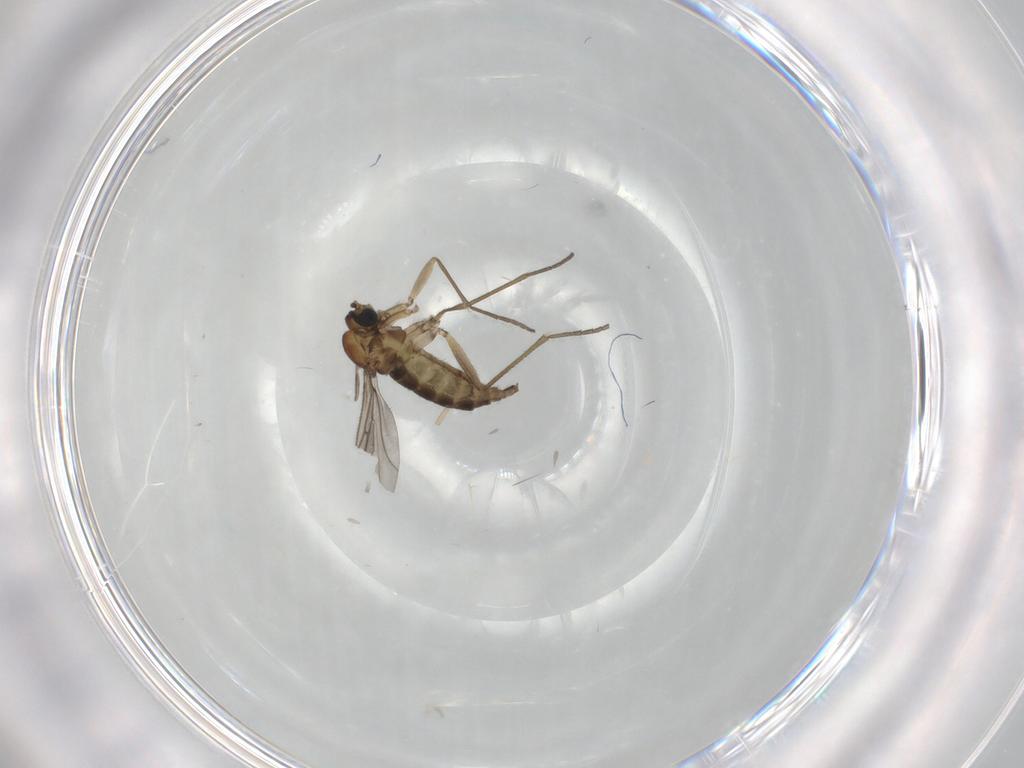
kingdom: Animalia
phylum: Arthropoda
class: Insecta
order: Diptera
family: Sciaridae
